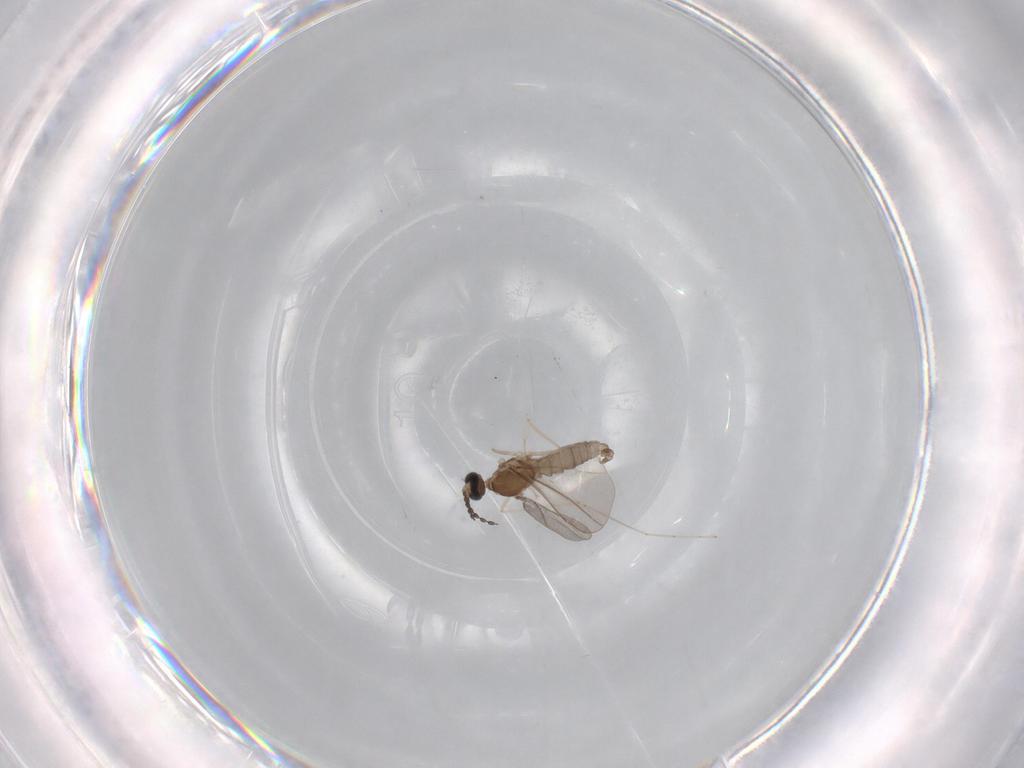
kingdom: Animalia
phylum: Arthropoda
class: Insecta
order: Diptera
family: Cecidomyiidae
